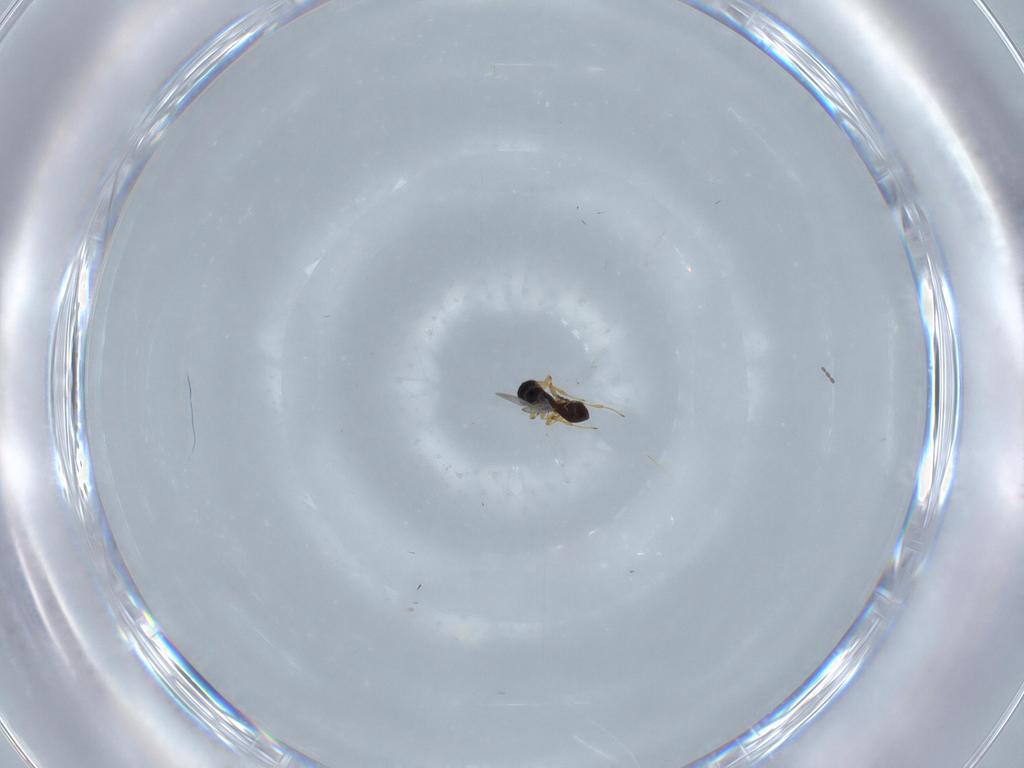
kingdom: Animalia
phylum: Arthropoda
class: Insecta
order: Hymenoptera
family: Platygastridae
